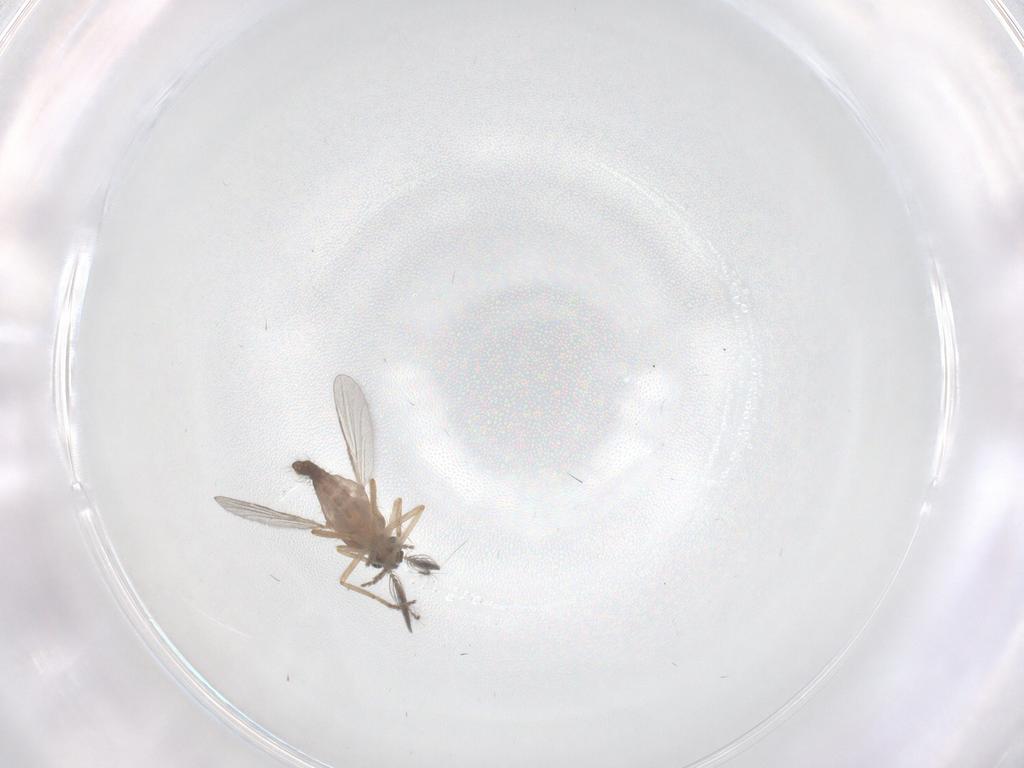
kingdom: Animalia
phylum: Arthropoda
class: Insecta
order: Diptera
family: Ceratopogonidae
